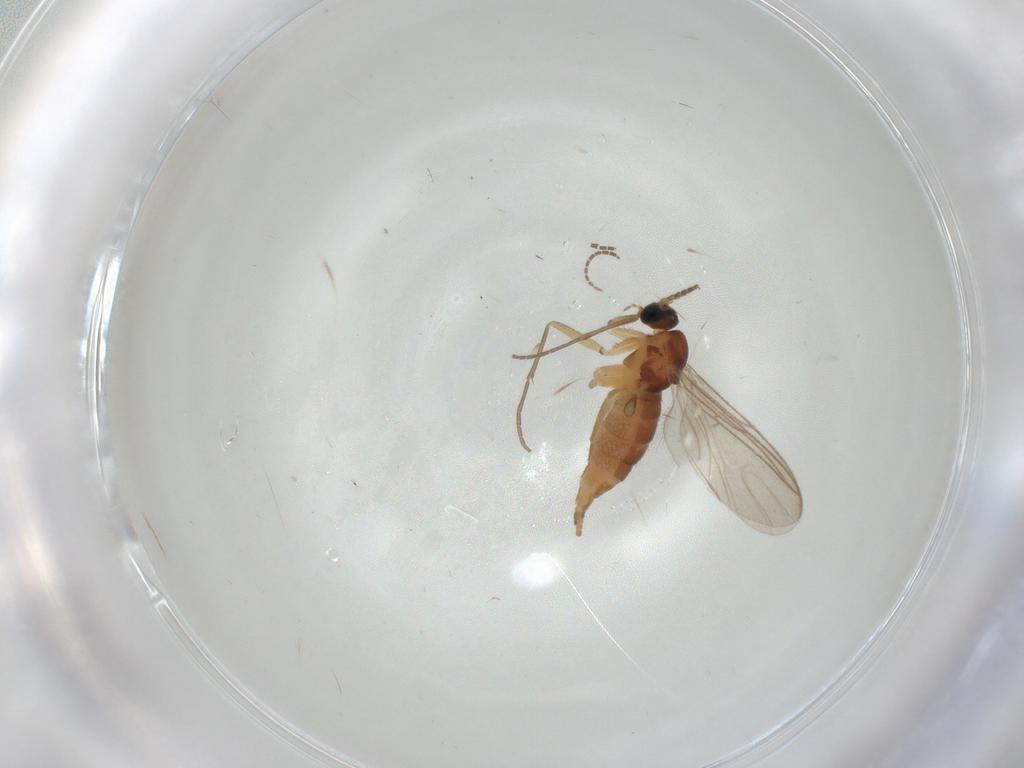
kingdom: Animalia
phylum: Arthropoda
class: Insecta
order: Diptera
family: Sciaridae
